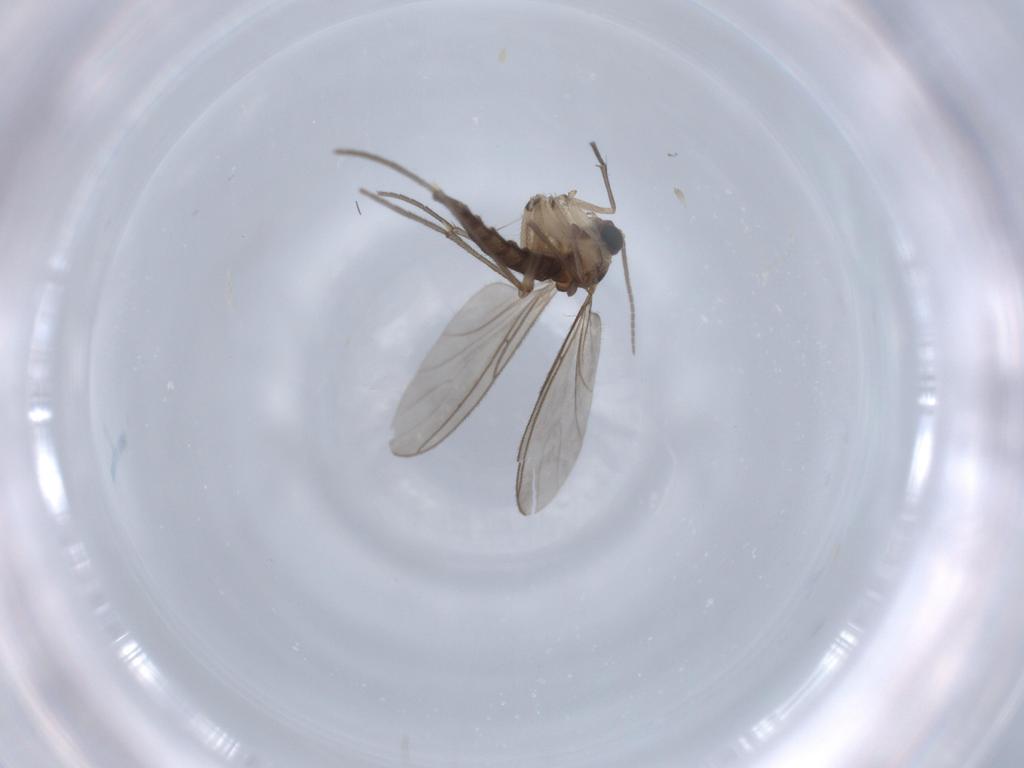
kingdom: Animalia
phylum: Arthropoda
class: Insecta
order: Diptera
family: Sciaridae
